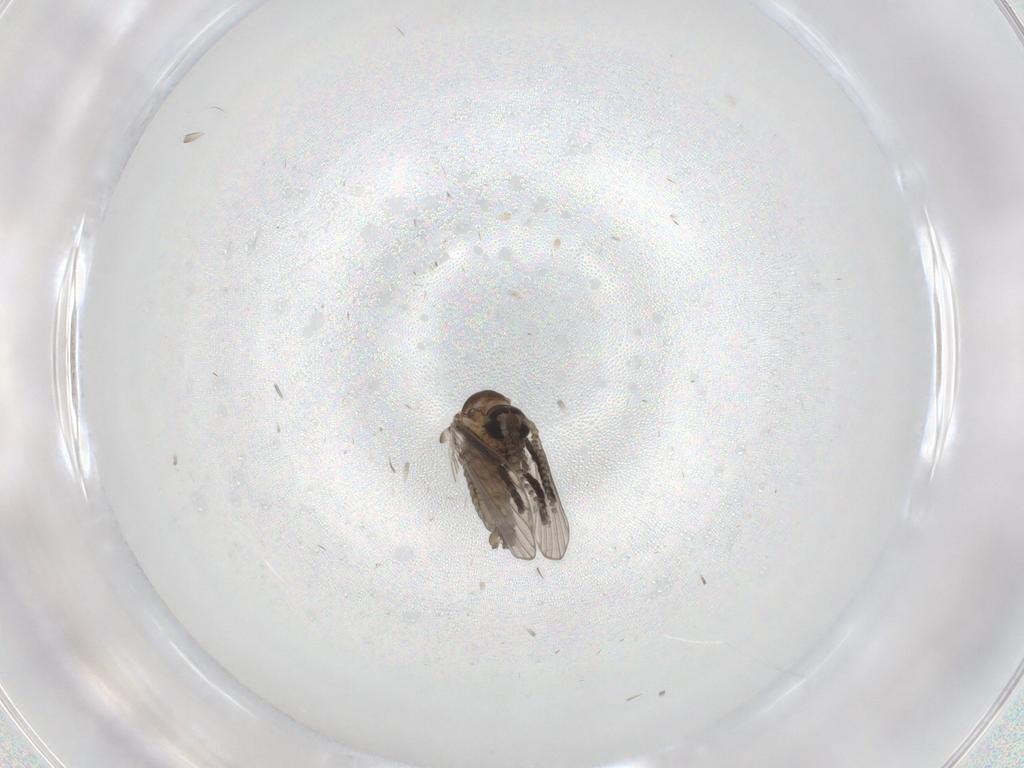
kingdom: Animalia
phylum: Arthropoda
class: Insecta
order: Diptera
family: Psychodidae
